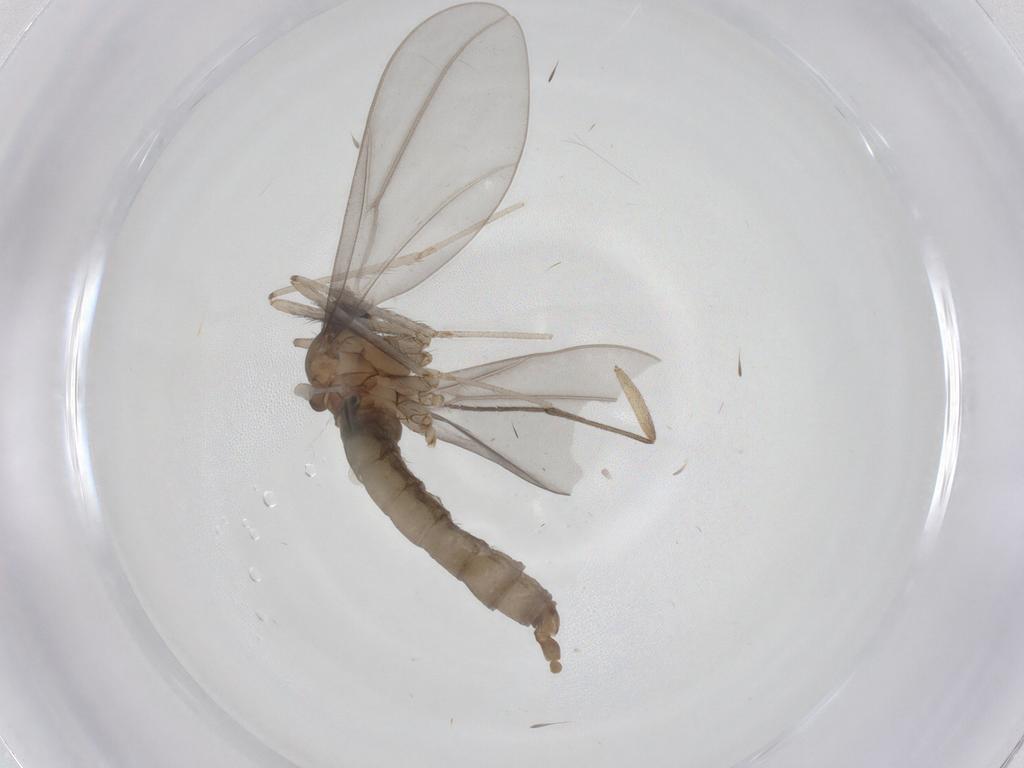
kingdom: Animalia
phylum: Arthropoda
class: Insecta
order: Diptera
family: Cecidomyiidae
